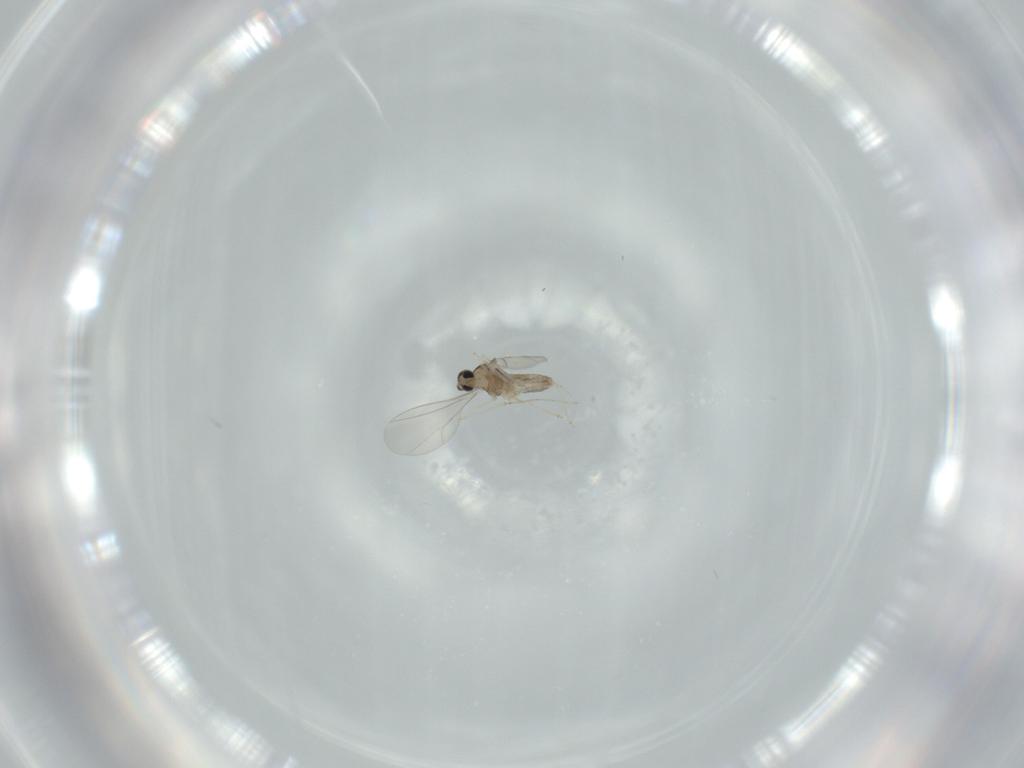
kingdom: Animalia
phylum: Arthropoda
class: Insecta
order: Diptera
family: Cecidomyiidae
